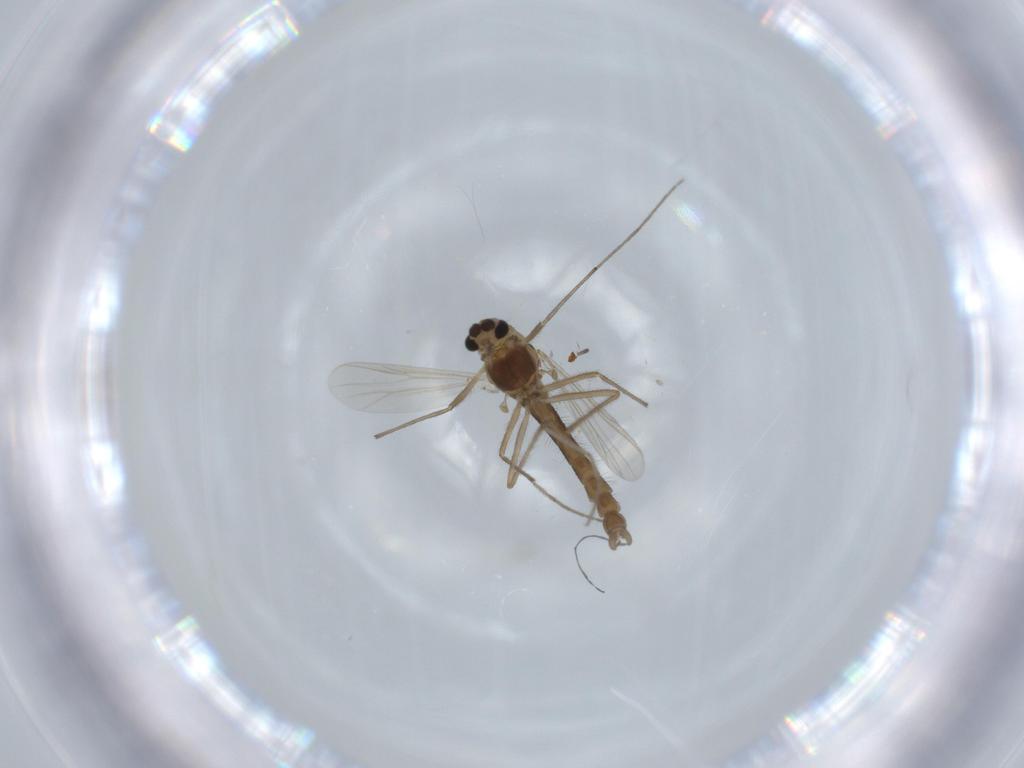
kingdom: Animalia
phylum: Arthropoda
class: Insecta
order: Diptera
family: Chironomidae
